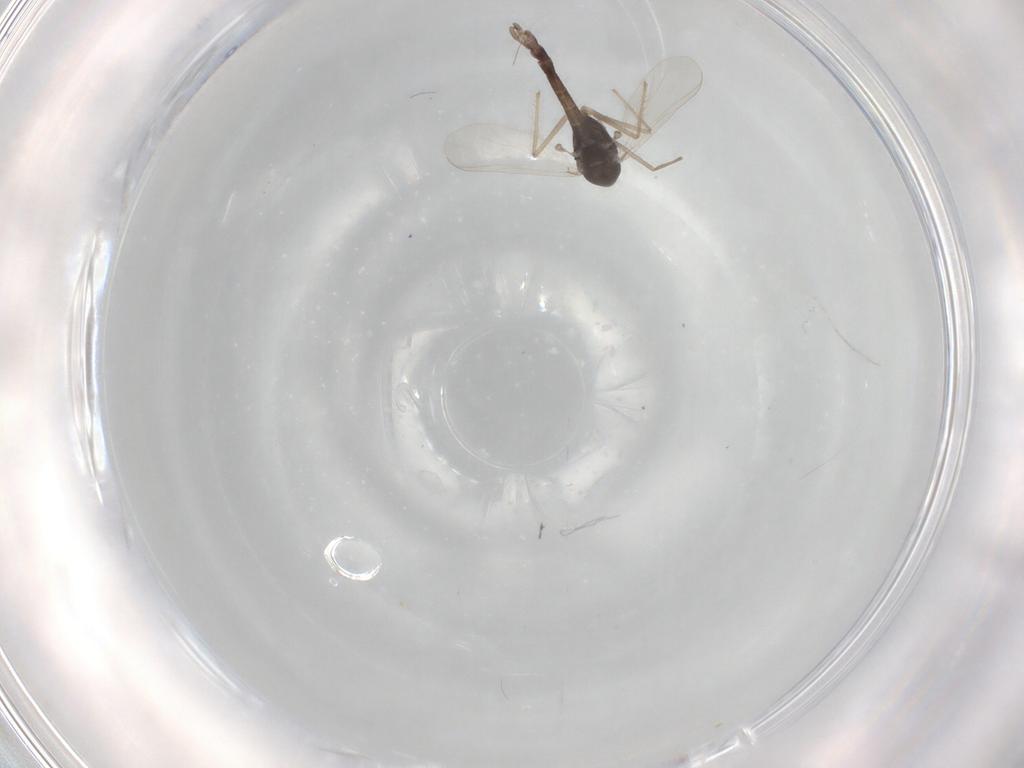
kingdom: Animalia
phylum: Arthropoda
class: Insecta
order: Diptera
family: Chironomidae
